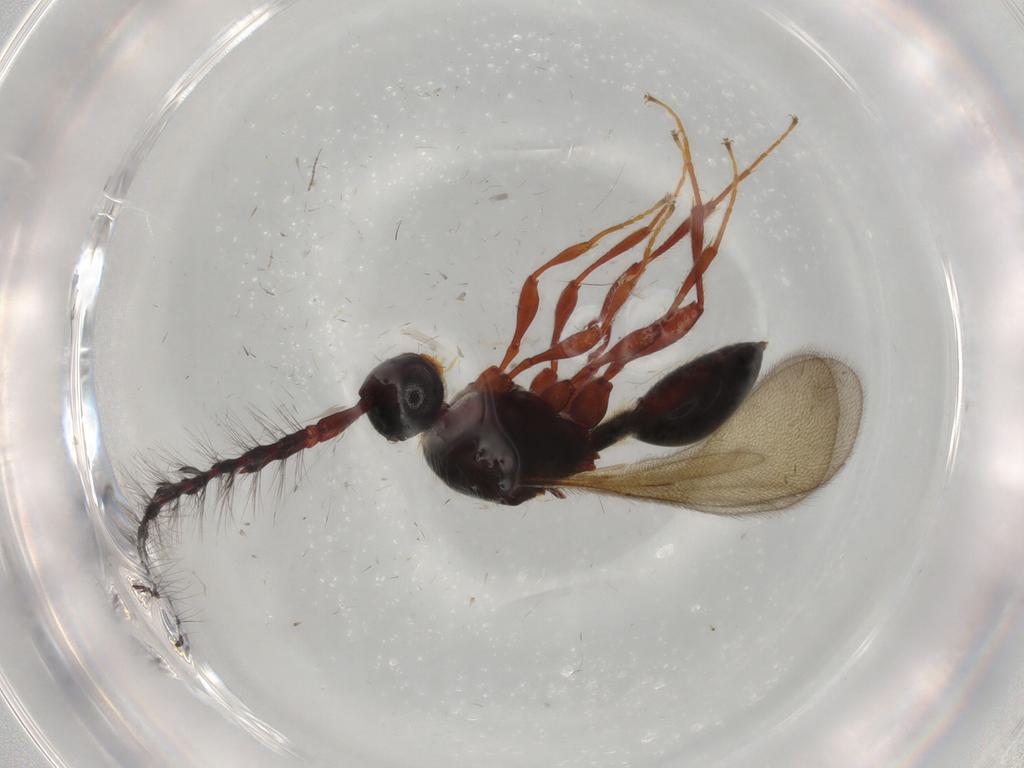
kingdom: Animalia
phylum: Arthropoda
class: Insecta
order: Hymenoptera
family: Diapriidae
